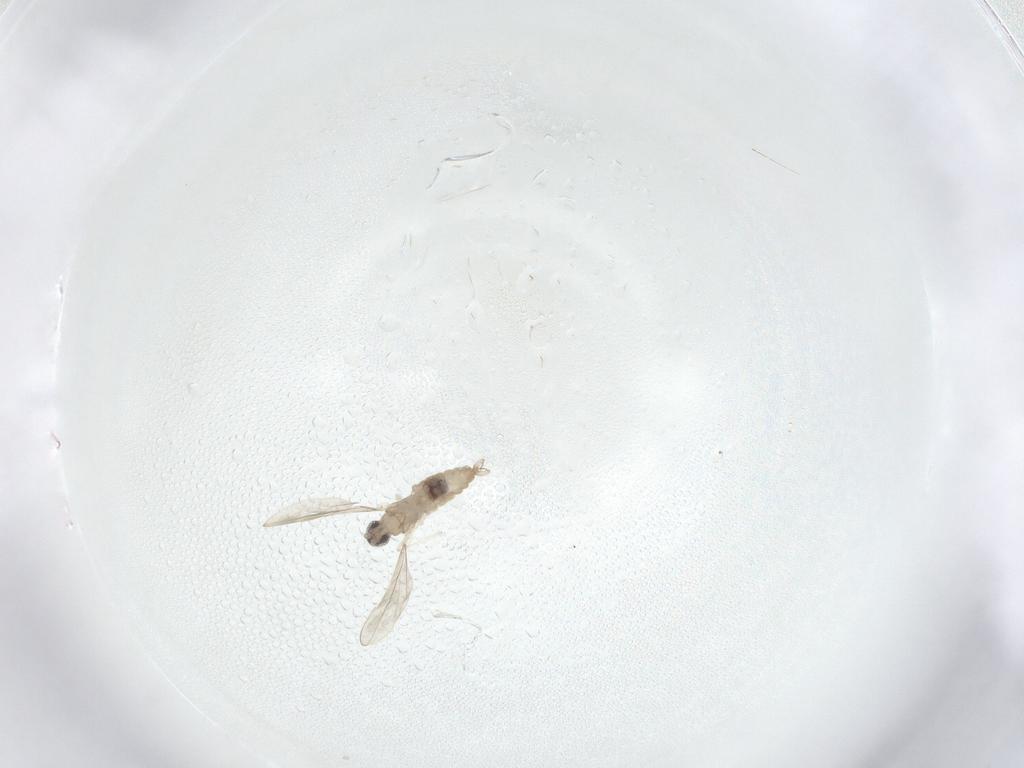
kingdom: Animalia
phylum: Arthropoda
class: Insecta
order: Diptera
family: Cecidomyiidae
